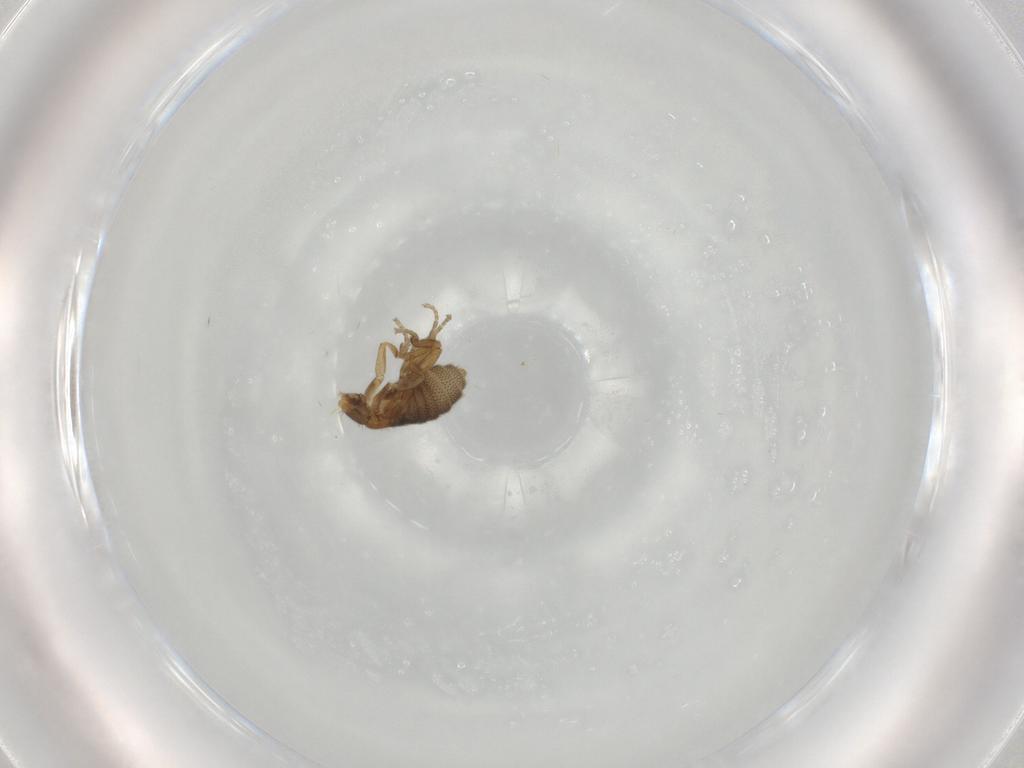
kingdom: Animalia
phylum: Arthropoda
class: Insecta
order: Diptera
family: Phoridae
